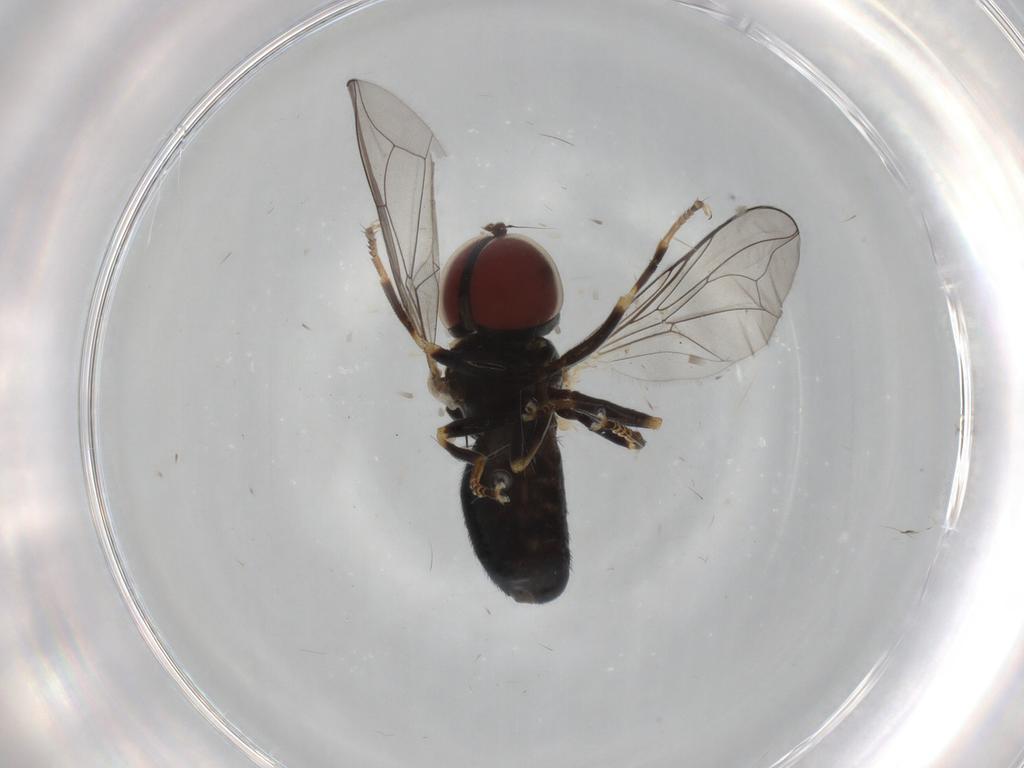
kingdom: Animalia
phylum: Arthropoda
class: Insecta
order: Diptera
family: Pipunculidae
